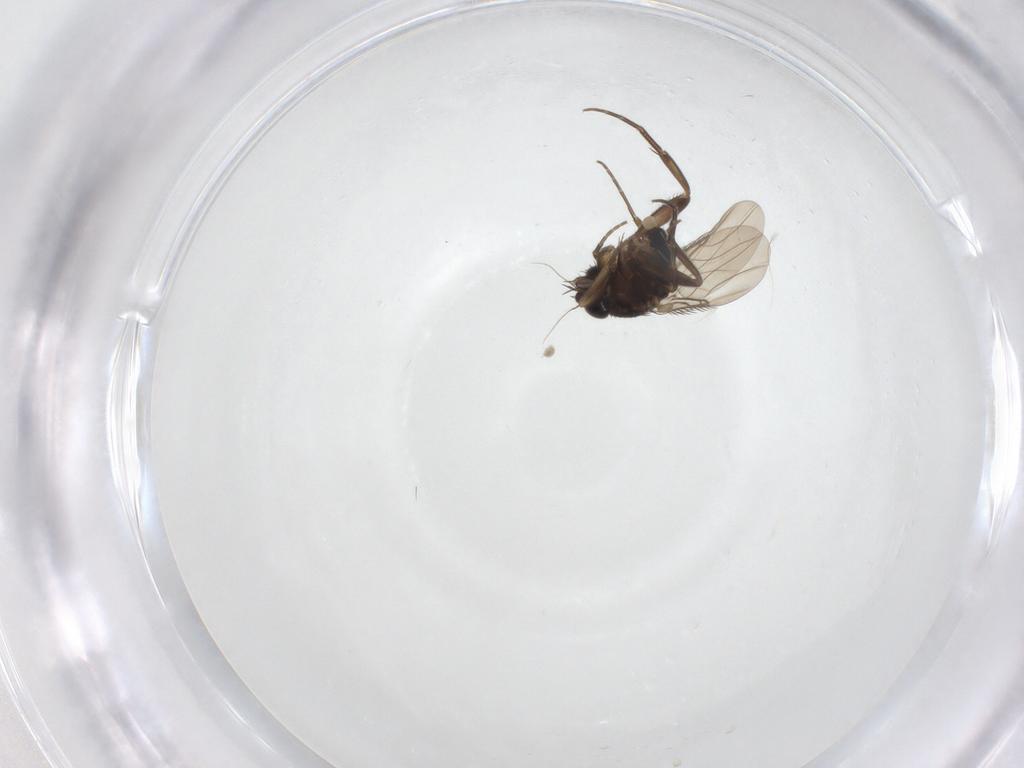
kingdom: Animalia
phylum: Arthropoda
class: Insecta
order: Diptera
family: Phoridae
